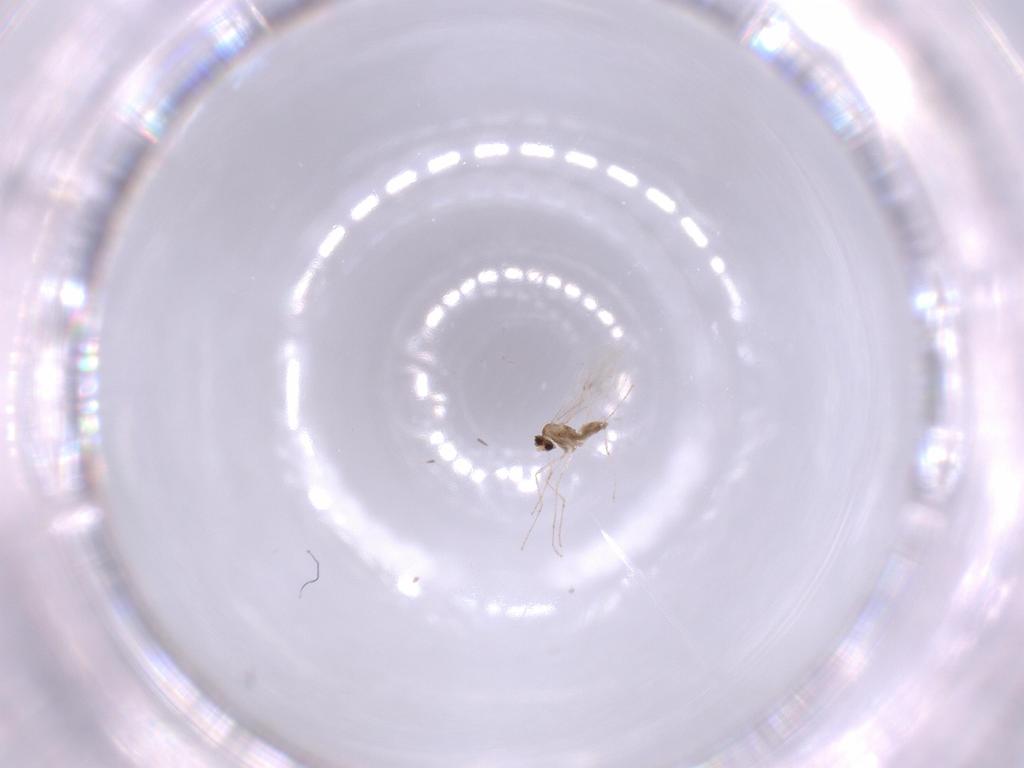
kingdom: Animalia
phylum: Arthropoda
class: Insecta
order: Diptera
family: Cecidomyiidae
